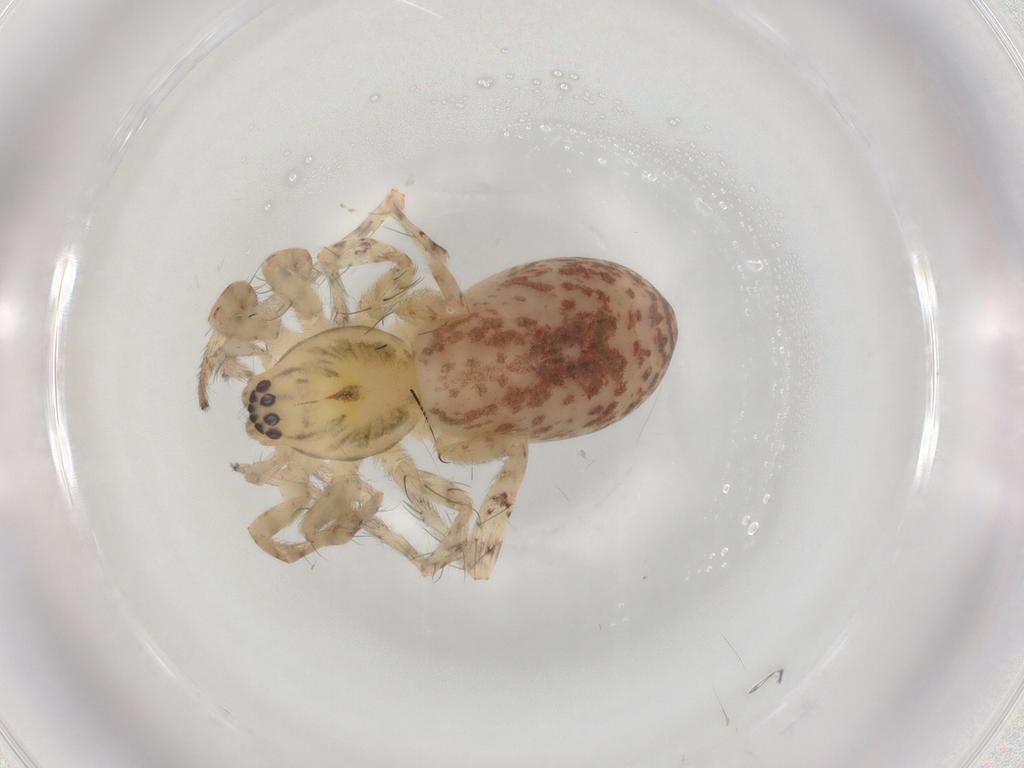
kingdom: Animalia
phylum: Arthropoda
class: Arachnida
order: Araneae
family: Anyphaenidae
